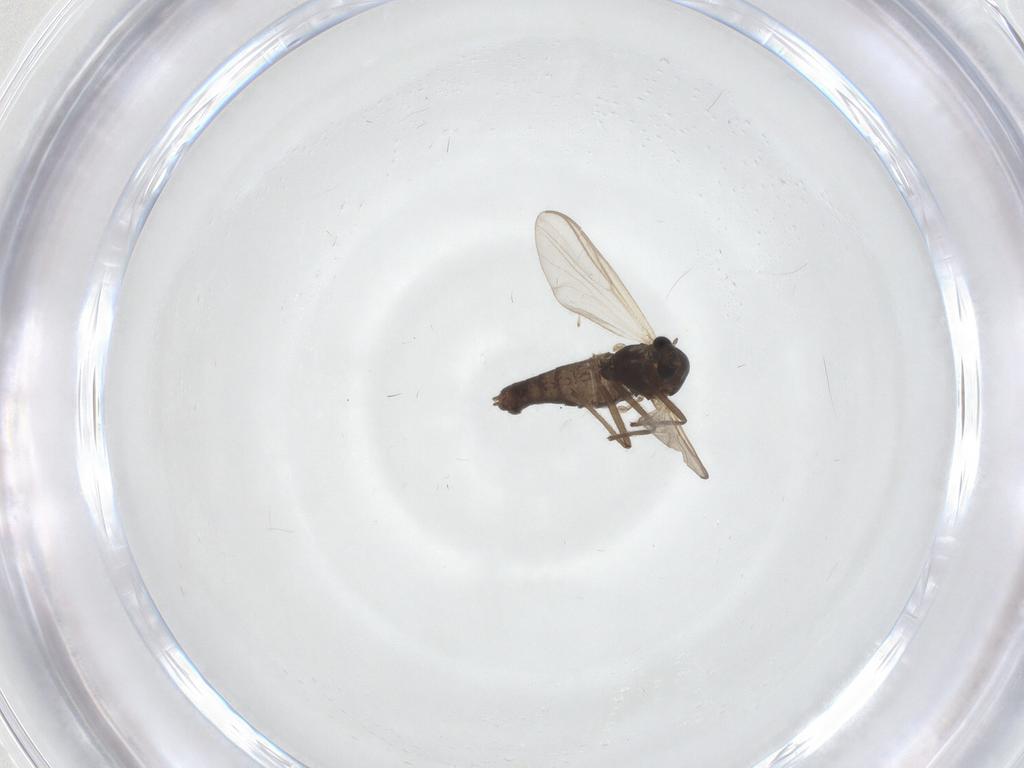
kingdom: Animalia
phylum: Arthropoda
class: Insecta
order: Diptera
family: Chironomidae
